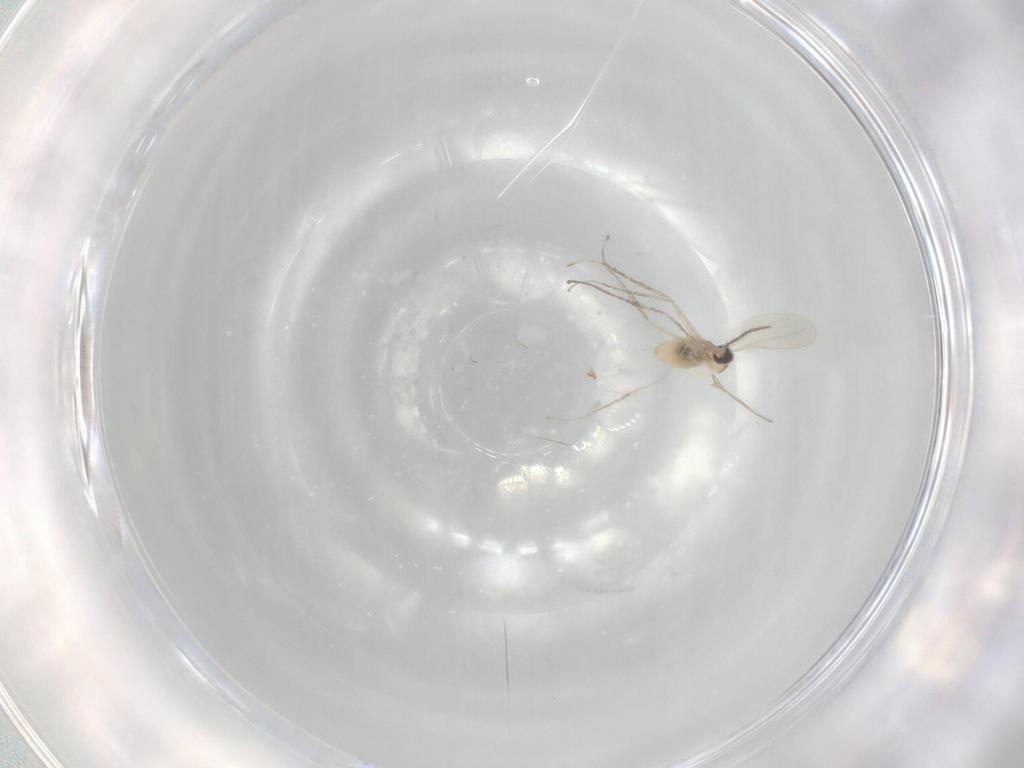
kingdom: Animalia
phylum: Arthropoda
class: Insecta
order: Diptera
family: Cecidomyiidae
